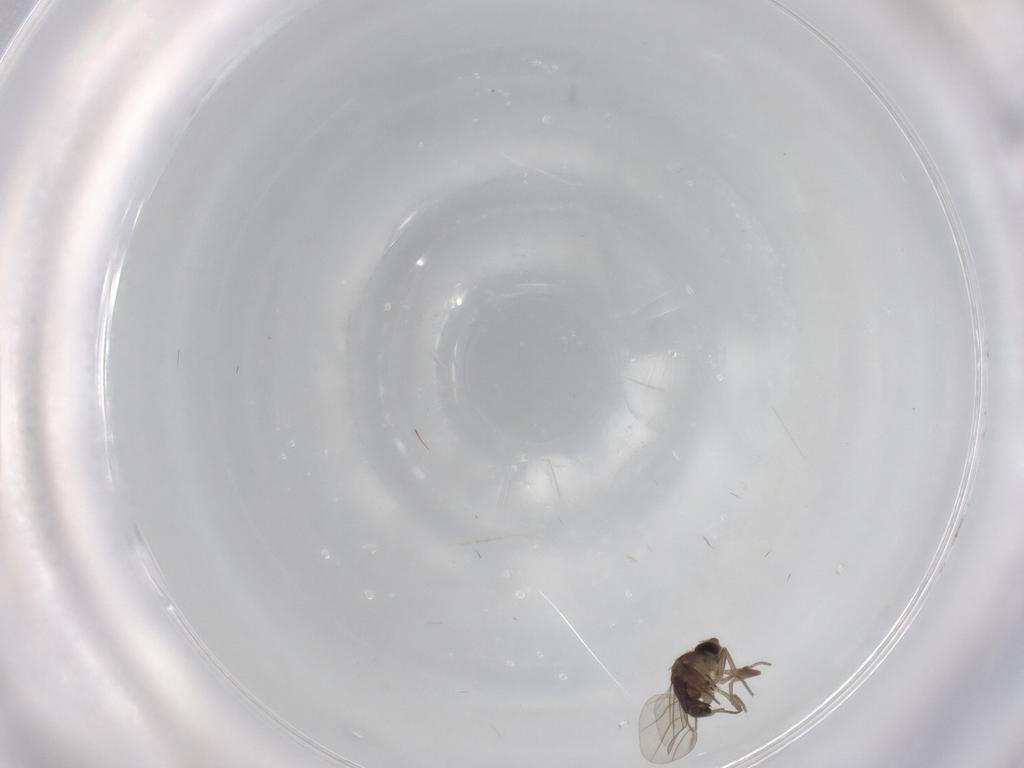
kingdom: Animalia
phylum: Arthropoda
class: Insecta
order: Diptera
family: Phoridae
